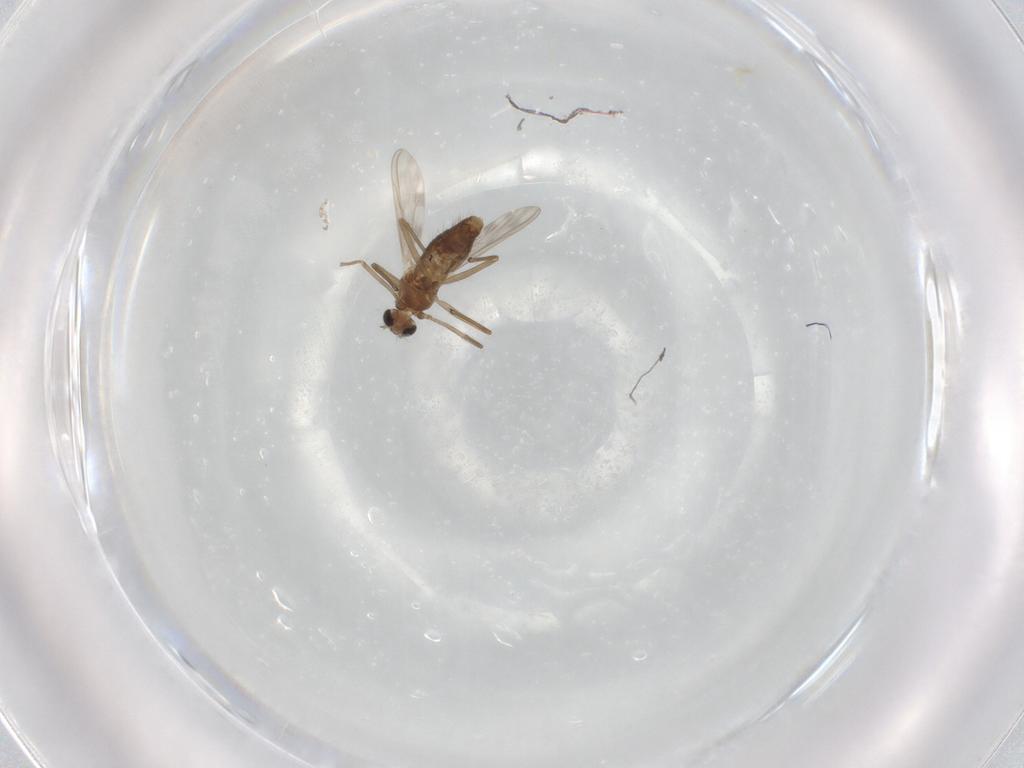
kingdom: Animalia
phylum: Arthropoda
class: Insecta
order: Diptera
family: Chironomidae
